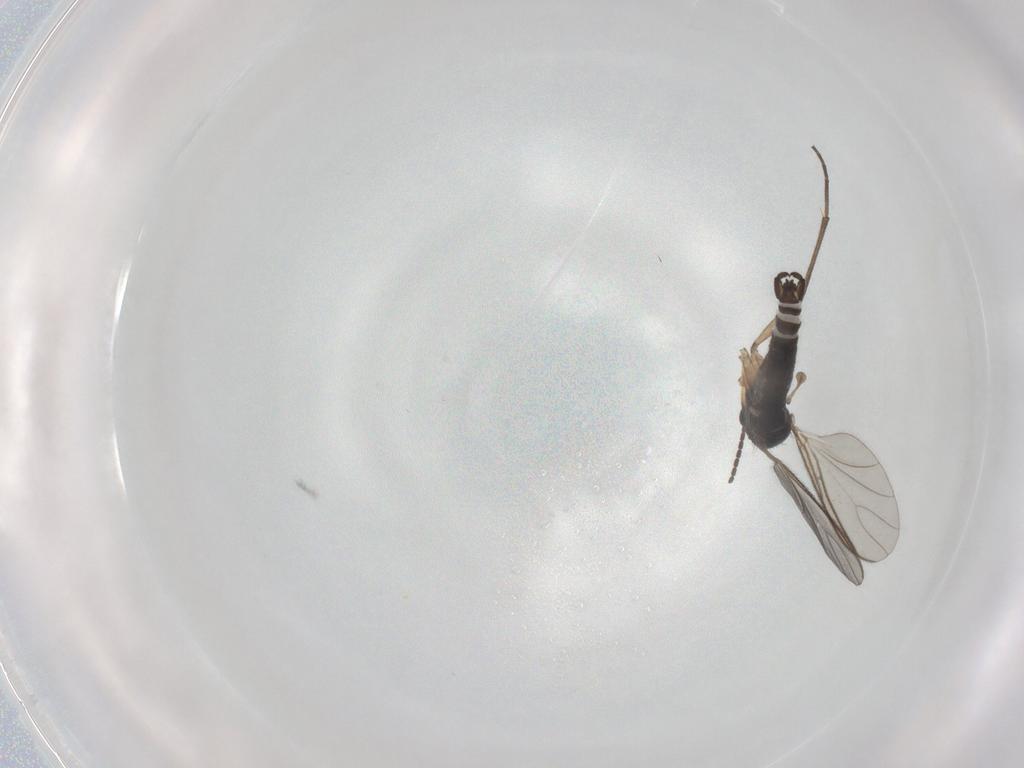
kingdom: Animalia
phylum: Arthropoda
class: Insecta
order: Diptera
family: Sciaridae
